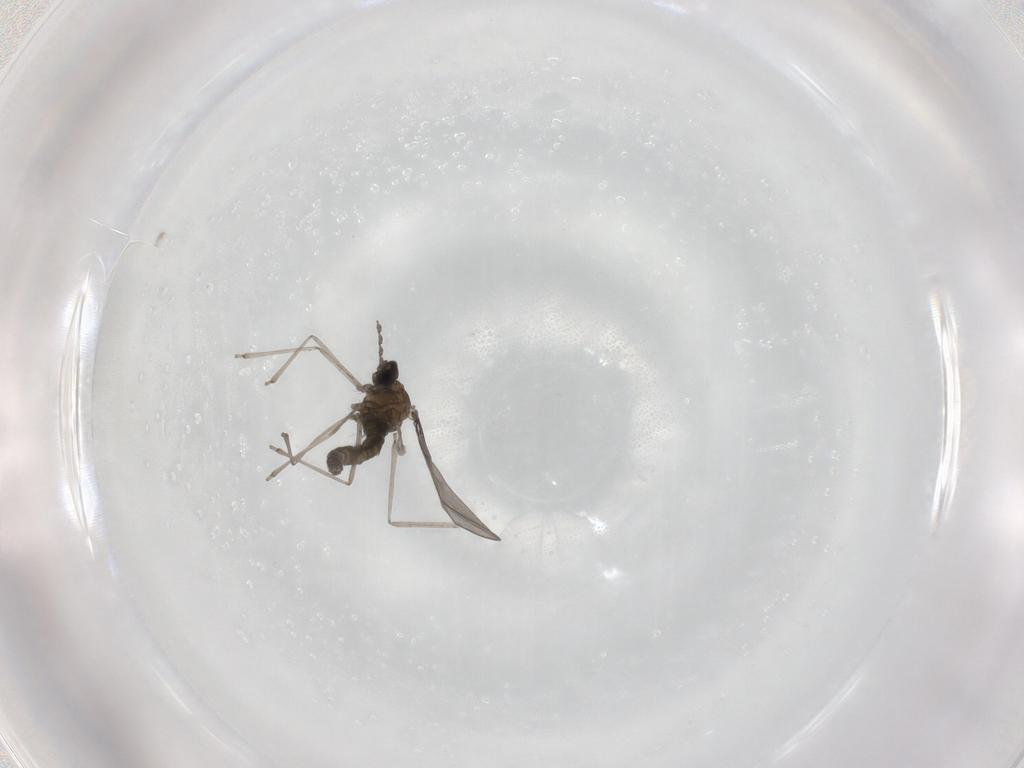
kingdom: Animalia
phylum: Arthropoda
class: Insecta
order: Diptera
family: Cecidomyiidae
